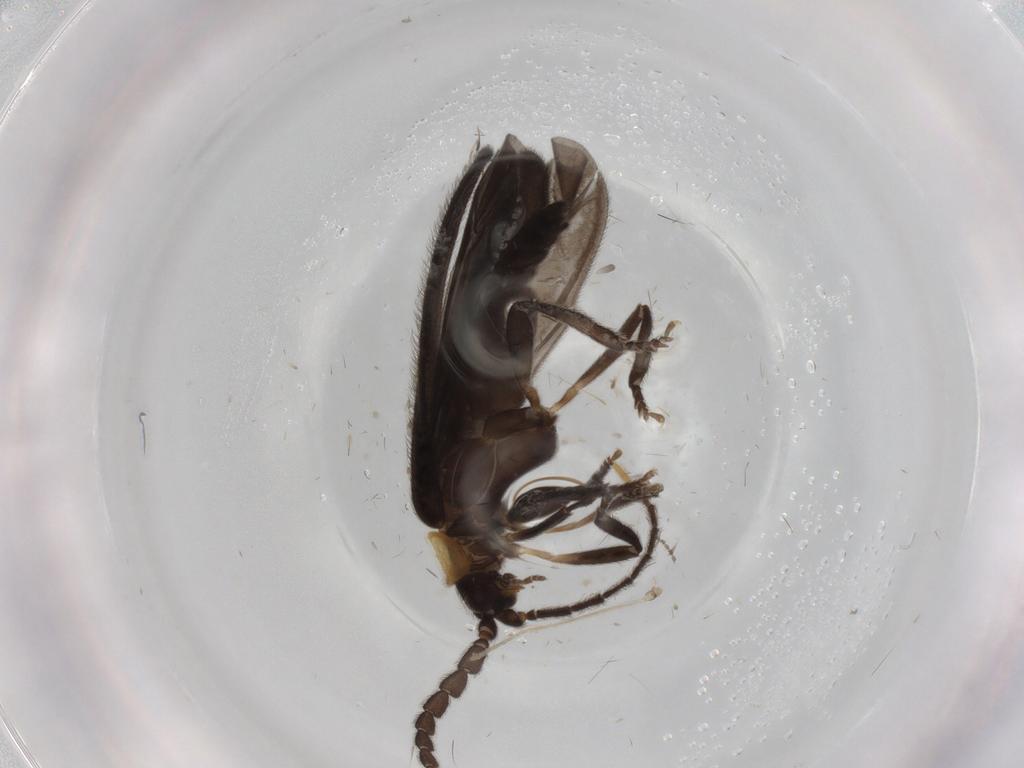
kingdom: Animalia
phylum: Arthropoda
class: Insecta
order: Coleoptera
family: Lycidae
